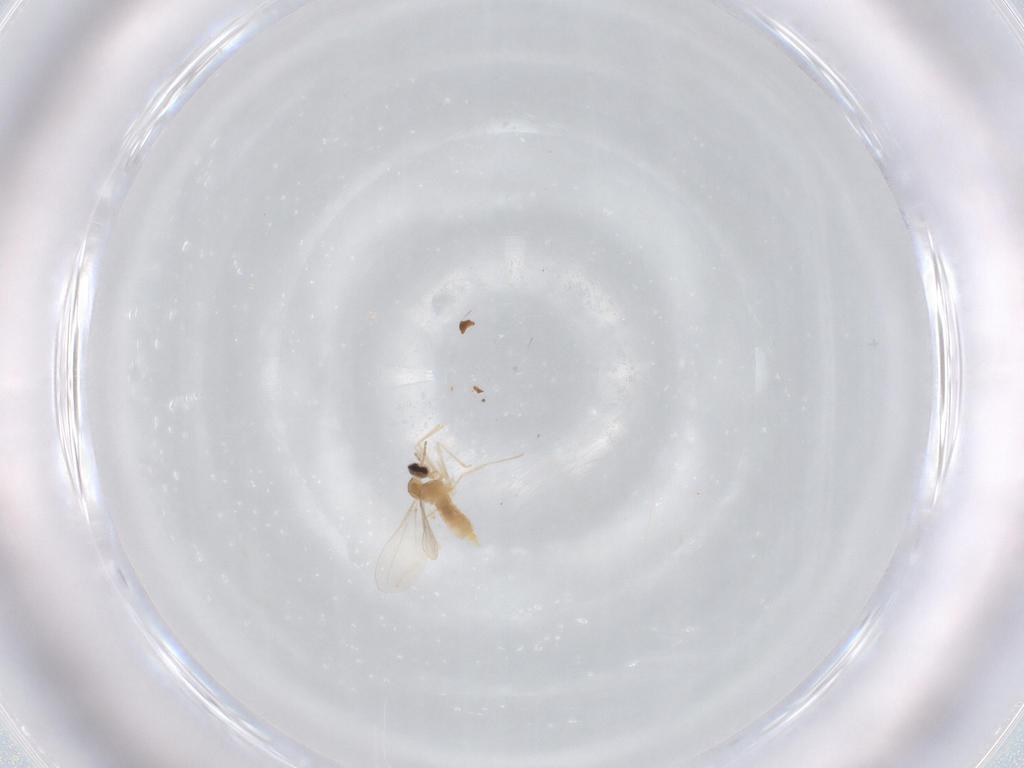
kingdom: Animalia
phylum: Arthropoda
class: Insecta
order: Diptera
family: Cecidomyiidae
